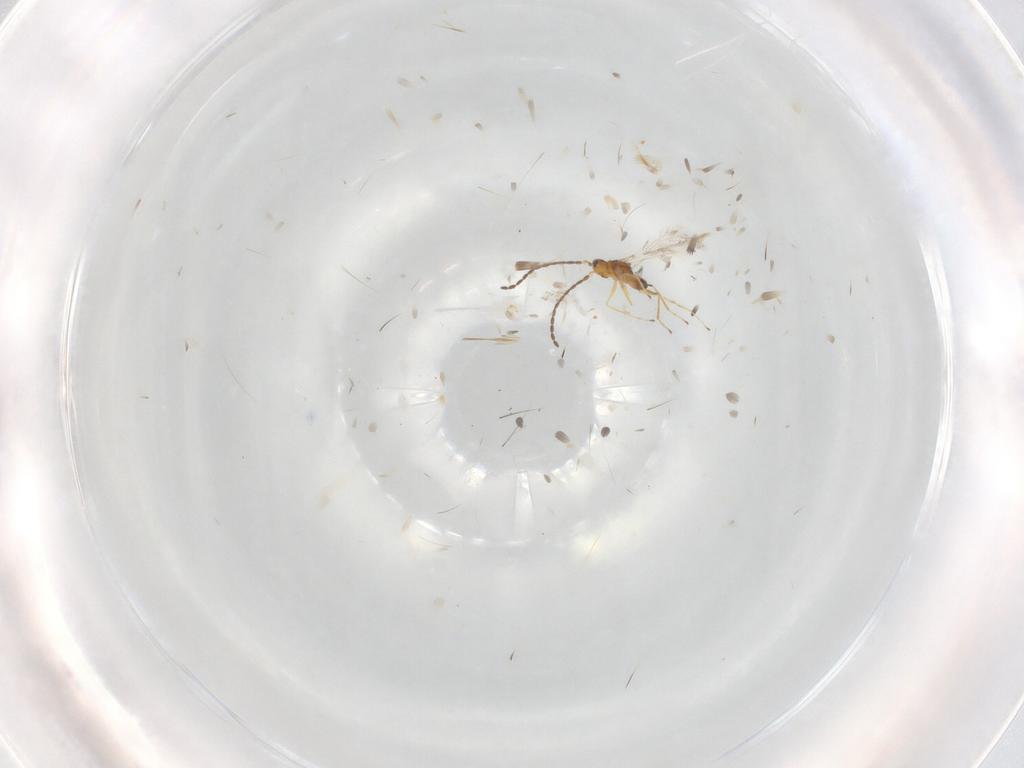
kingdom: Animalia
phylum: Arthropoda
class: Insecta
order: Hymenoptera
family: Mymaridae
